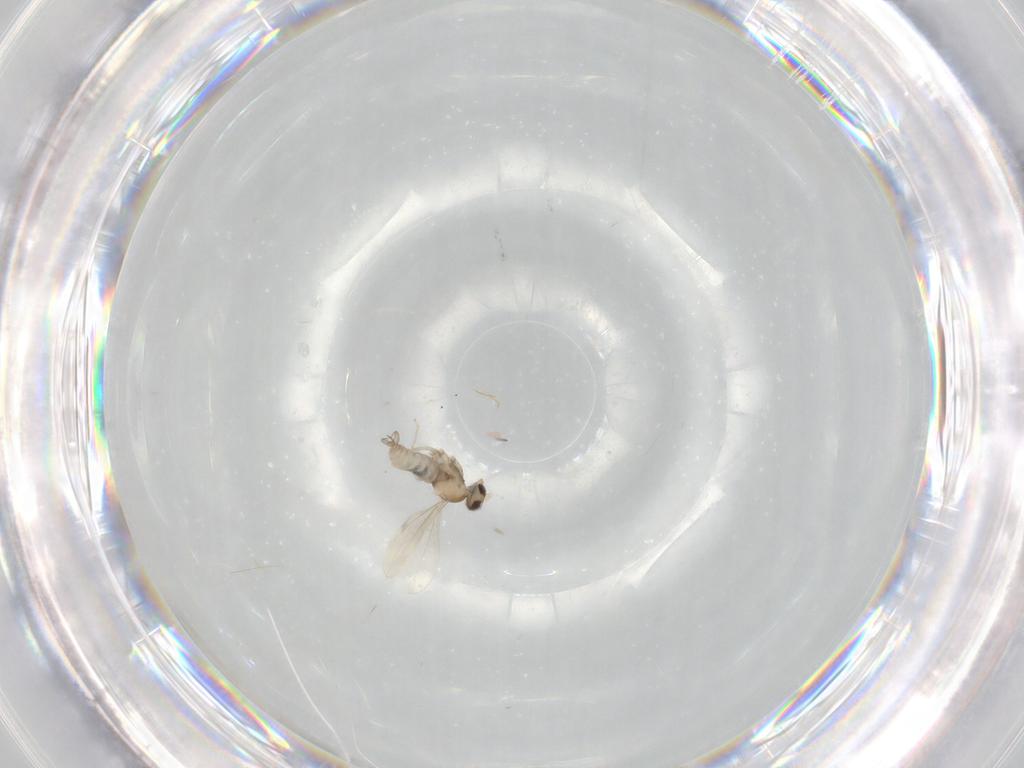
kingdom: Animalia
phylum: Arthropoda
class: Insecta
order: Diptera
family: Cecidomyiidae
